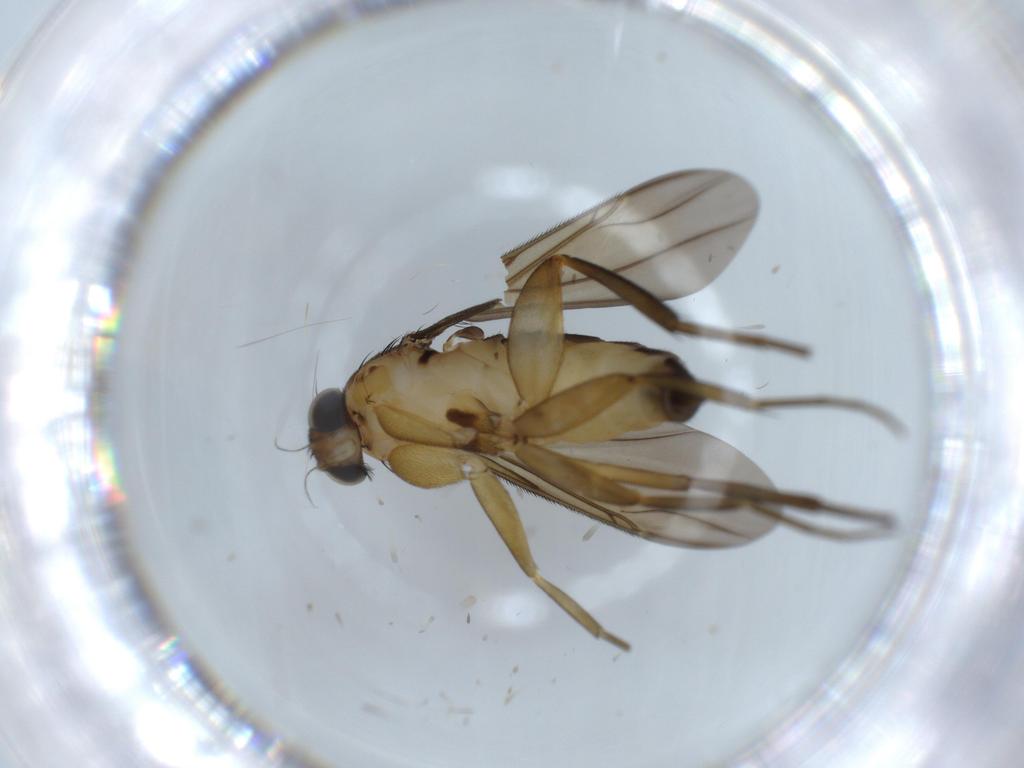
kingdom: Animalia
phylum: Arthropoda
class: Insecta
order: Diptera
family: Phoridae
